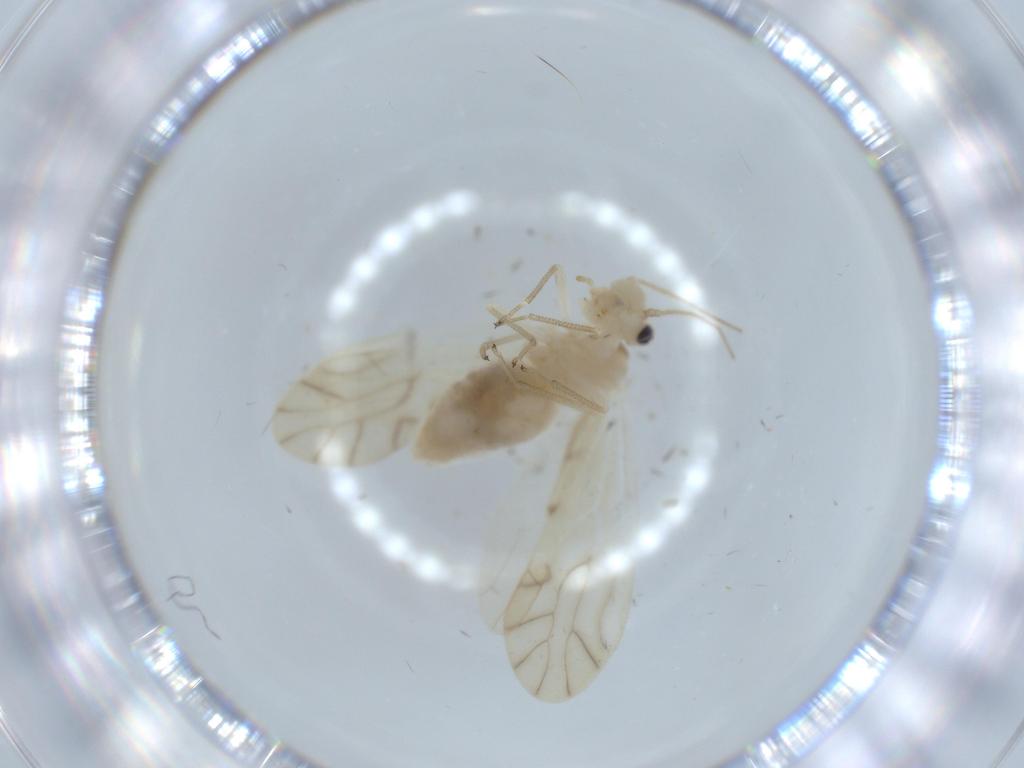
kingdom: Animalia
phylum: Arthropoda
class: Insecta
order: Psocodea
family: Caeciliusidae
